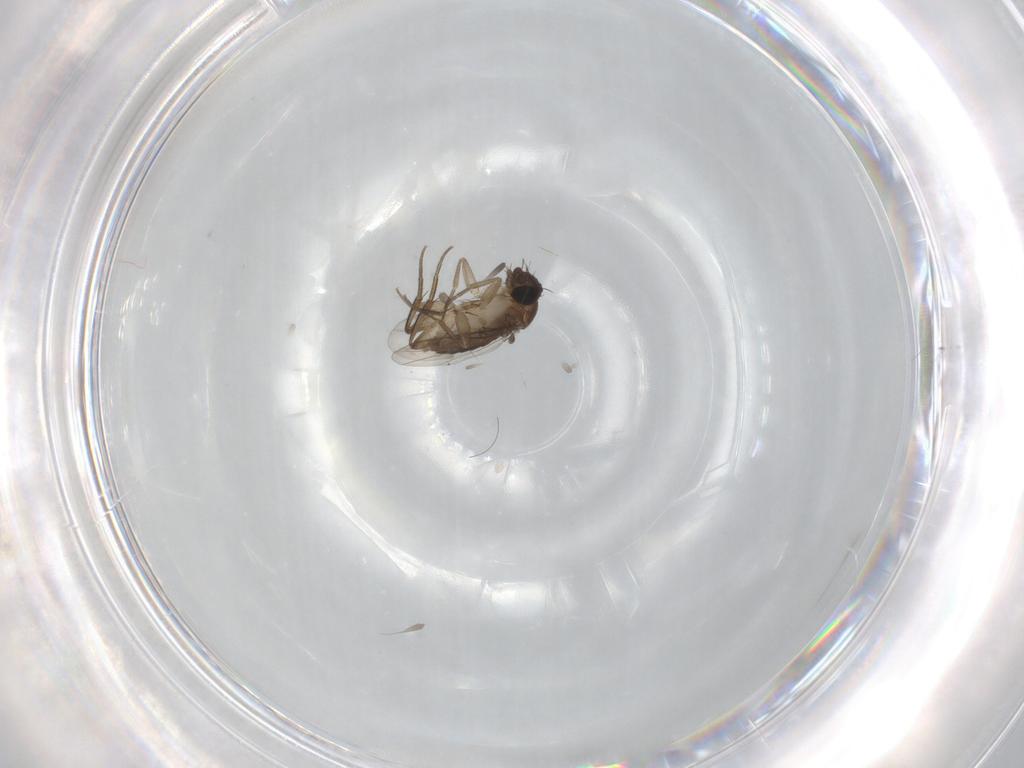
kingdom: Animalia
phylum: Arthropoda
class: Insecta
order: Diptera
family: Phoridae
